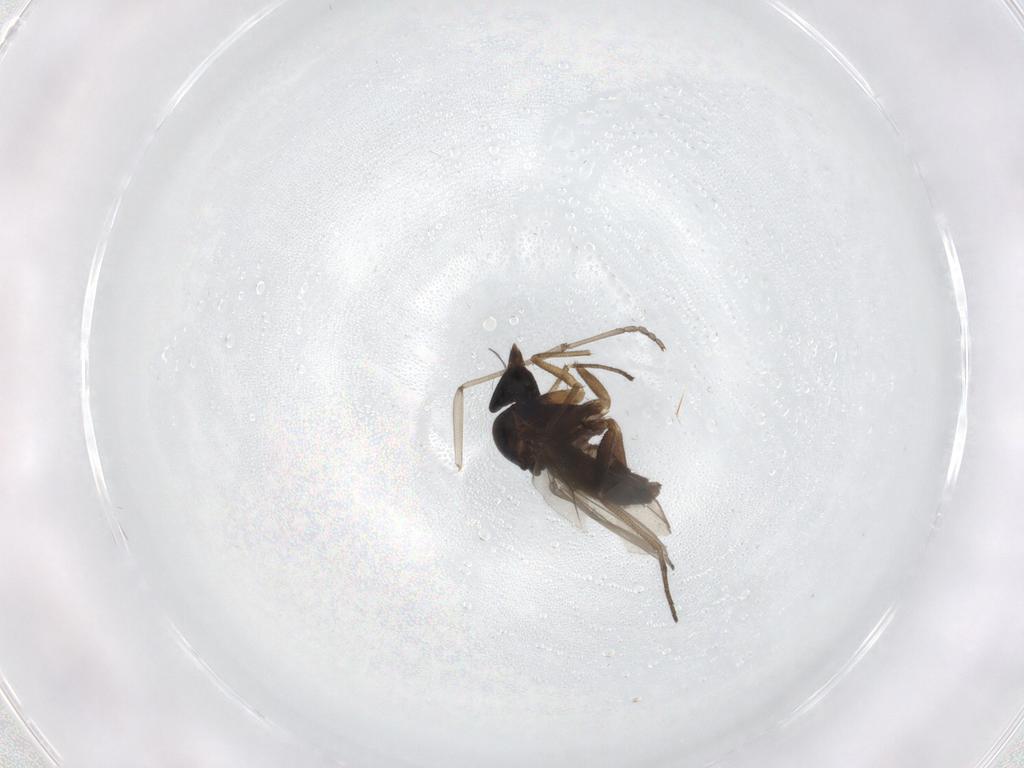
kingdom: Animalia
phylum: Arthropoda
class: Insecta
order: Diptera
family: Dolichopodidae
